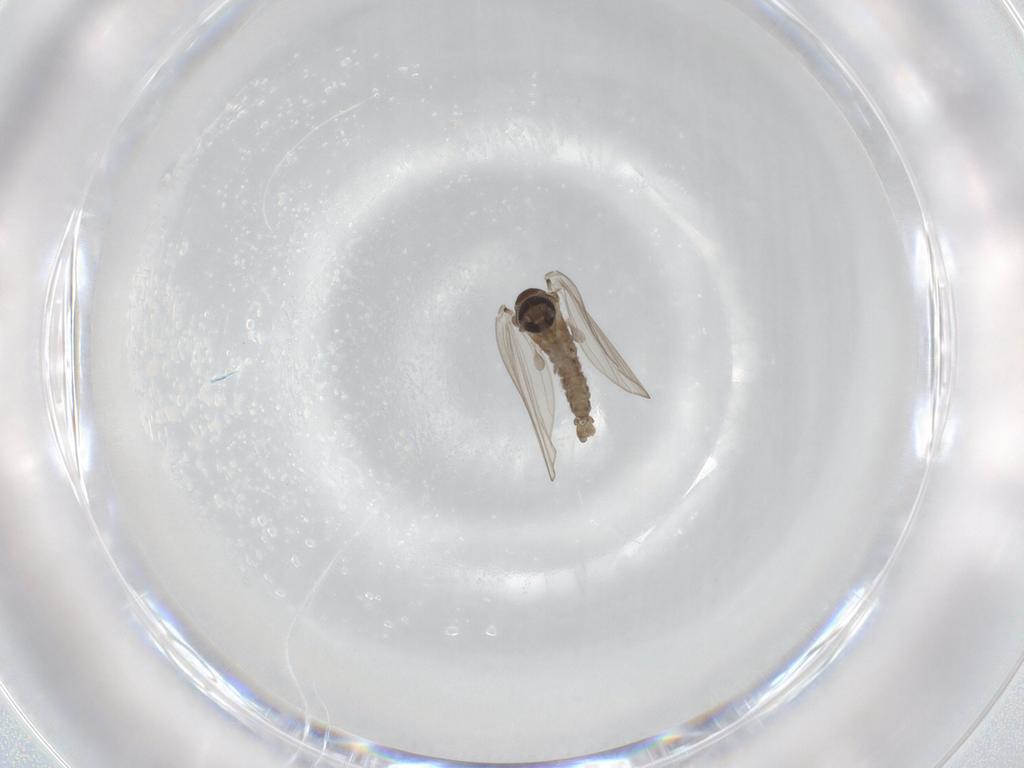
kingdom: Animalia
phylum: Arthropoda
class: Insecta
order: Diptera
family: Psychodidae
